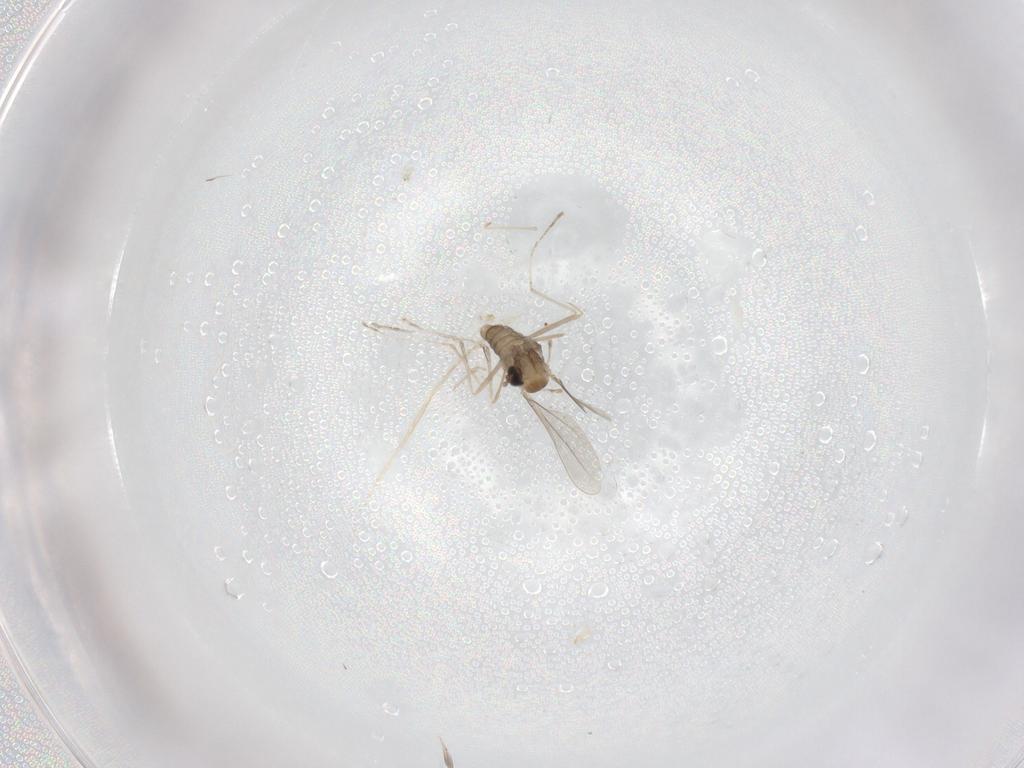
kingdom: Animalia
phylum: Arthropoda
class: Insecta
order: Diptera
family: Cecidomyiidae
